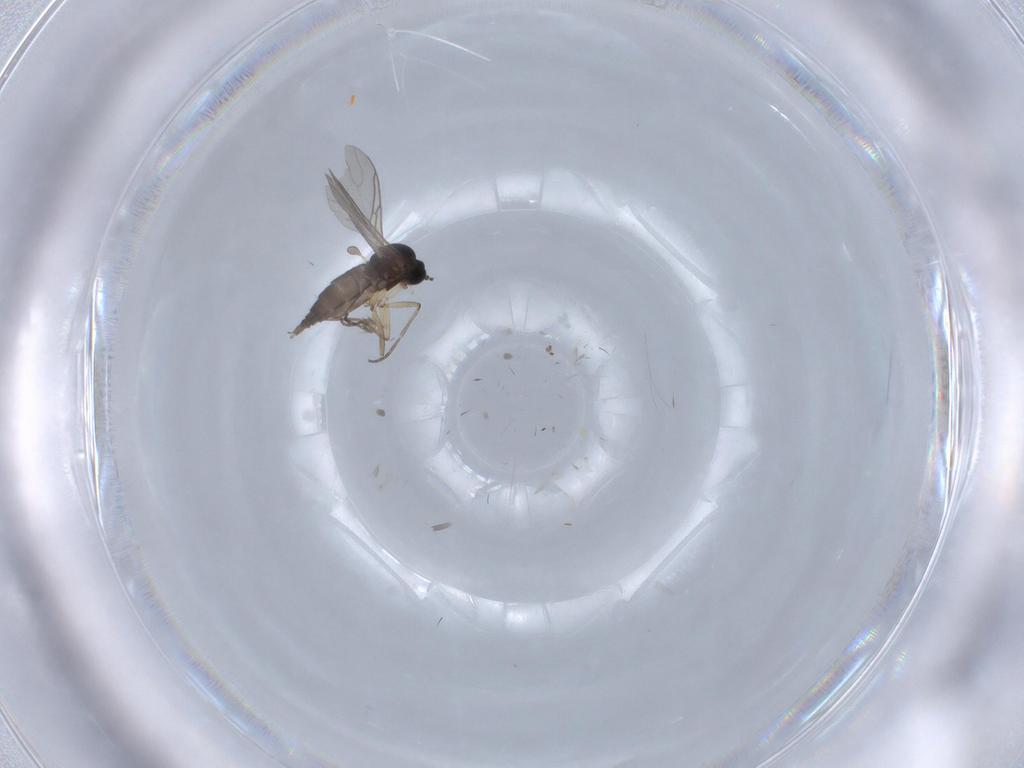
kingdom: Animalia
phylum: Arthropoda
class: Insecta
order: Diptera
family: Sciaridae
